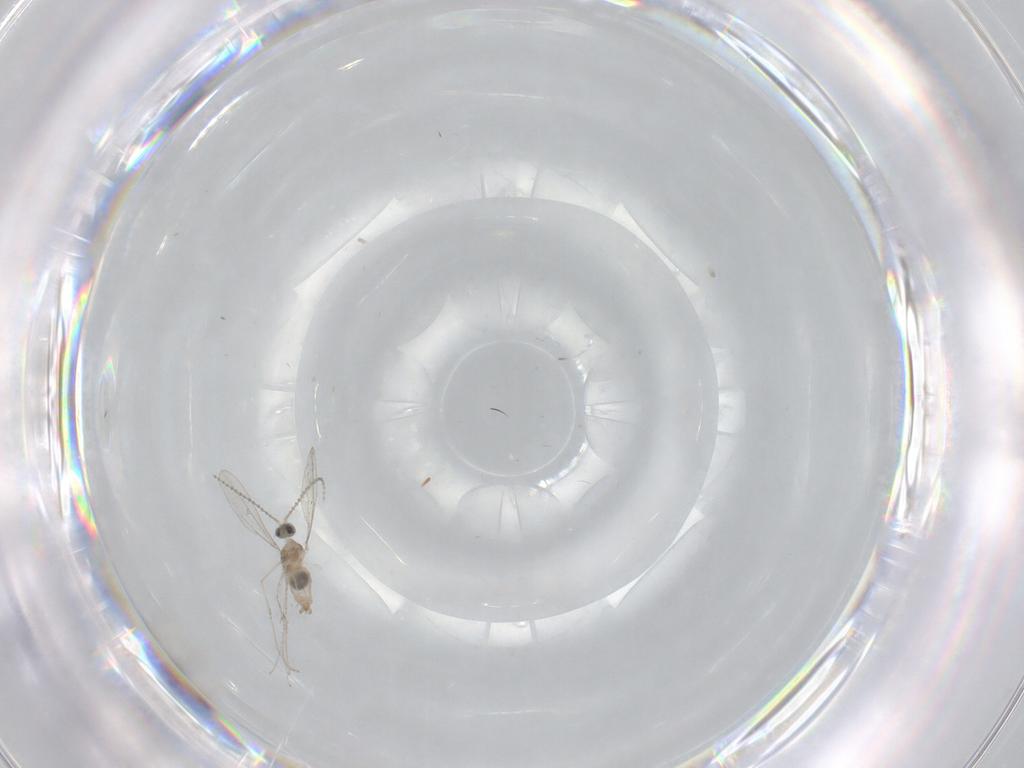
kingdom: Animalia
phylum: Arthropoda
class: Insecta
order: Diptera
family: Cecidomyiidae
